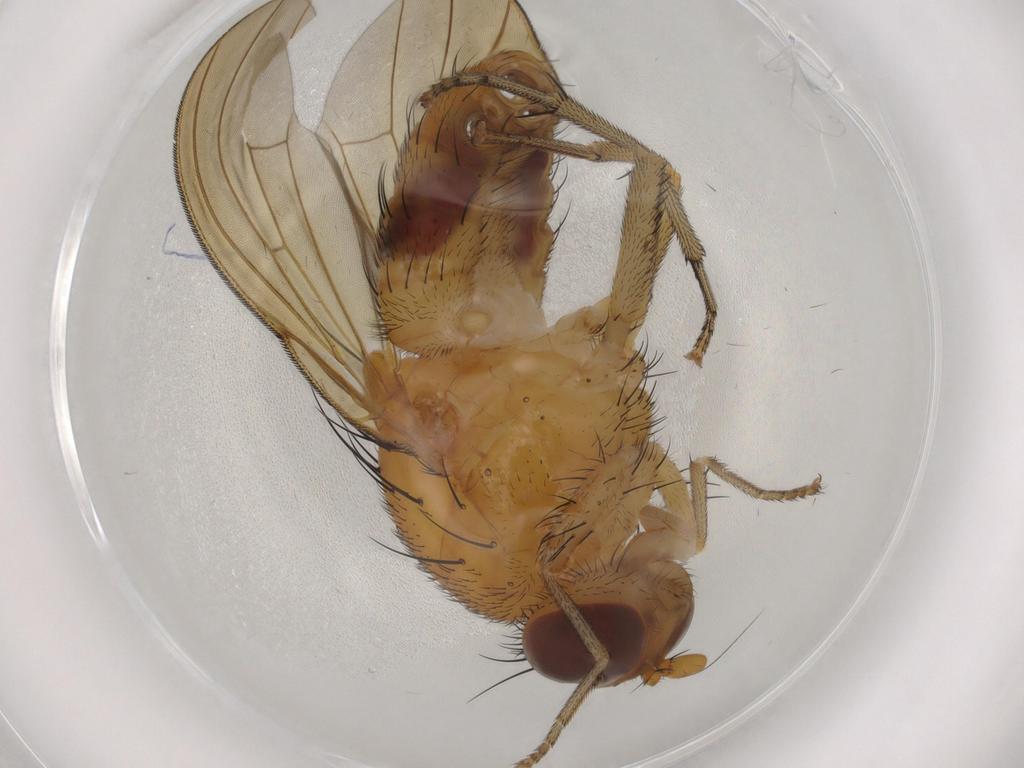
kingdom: Animalia
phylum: Arthropoda
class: Insecta
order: Diptera
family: Lauxaniidae
